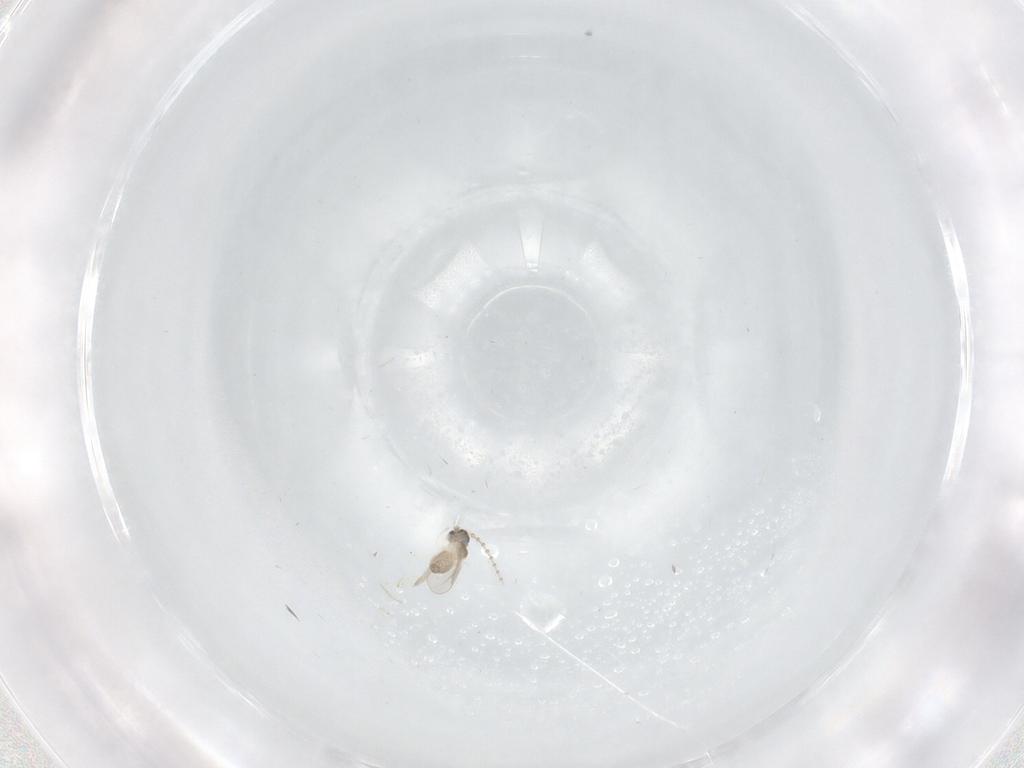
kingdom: Animalia
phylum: Arthropoda
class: Insecta
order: Diptera
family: Cecidomyiidae
